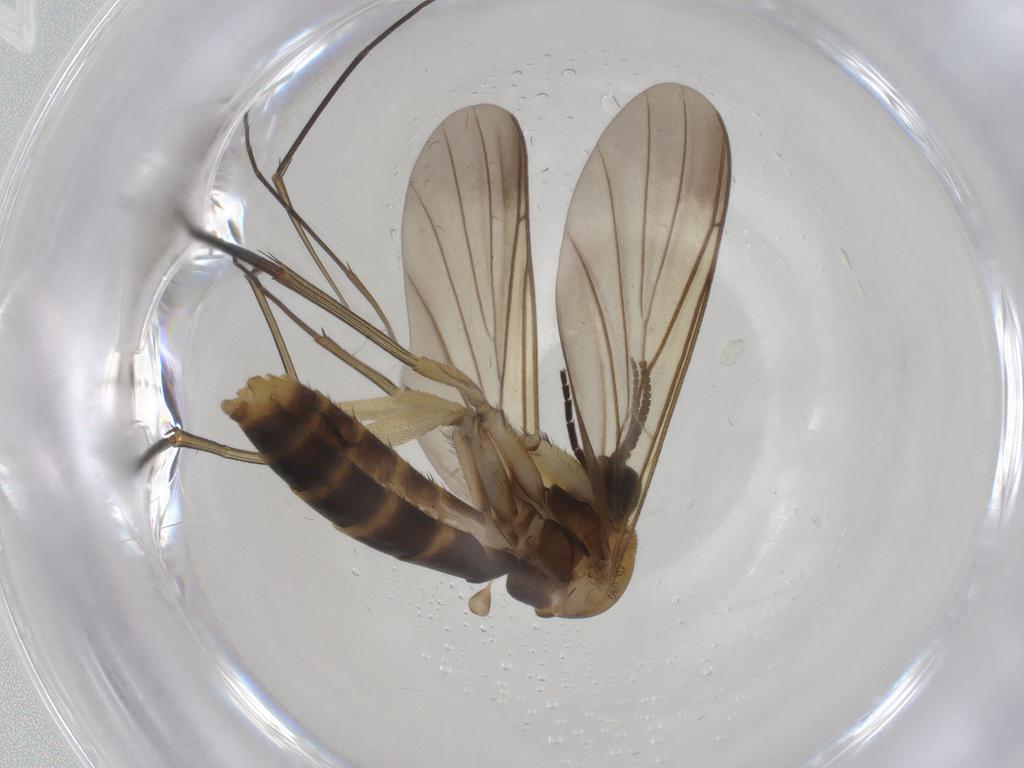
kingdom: Animalia
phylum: Arthropoda
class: Insecta
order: Diptera
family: Keroplatidae
